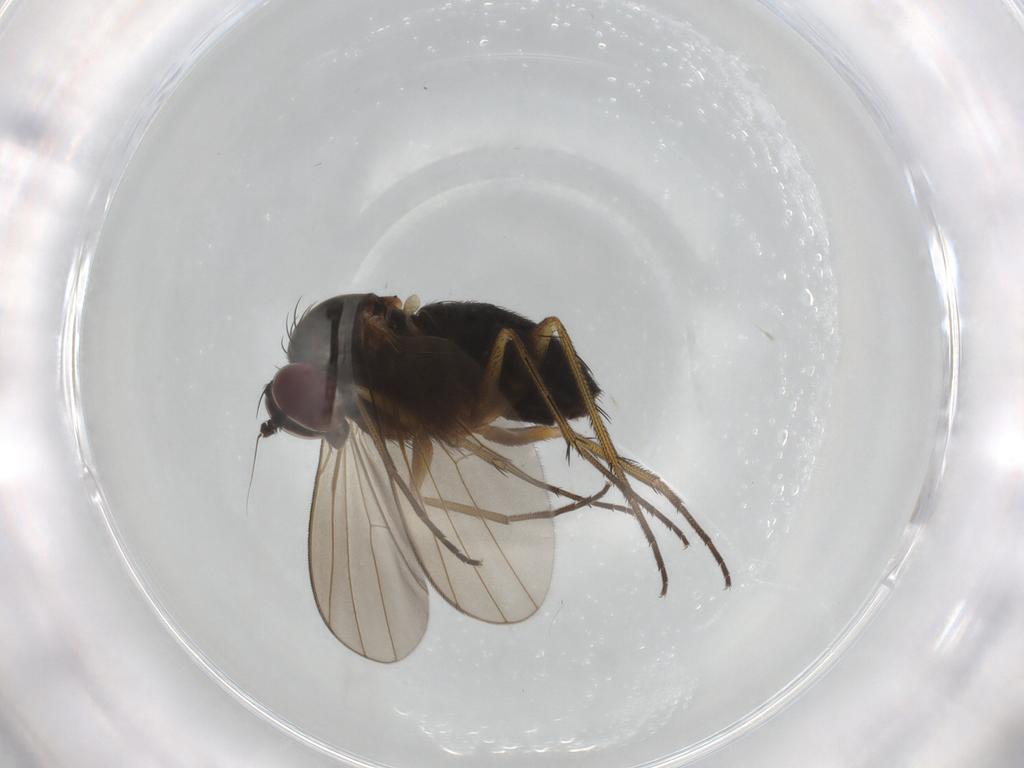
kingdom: Animalia
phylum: Arthropoda
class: Insecta
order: Diptera
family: Dolichopodidae
